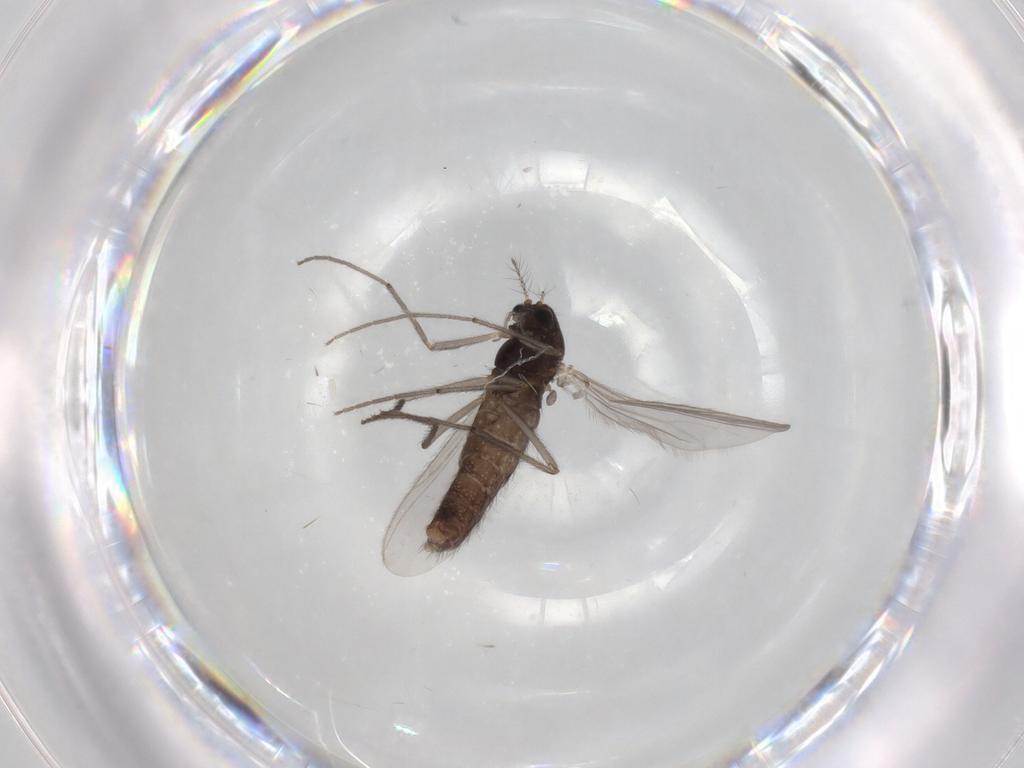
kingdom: Animalia
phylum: Arthropoda
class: Insecta
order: Diptera
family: Chironomidae
